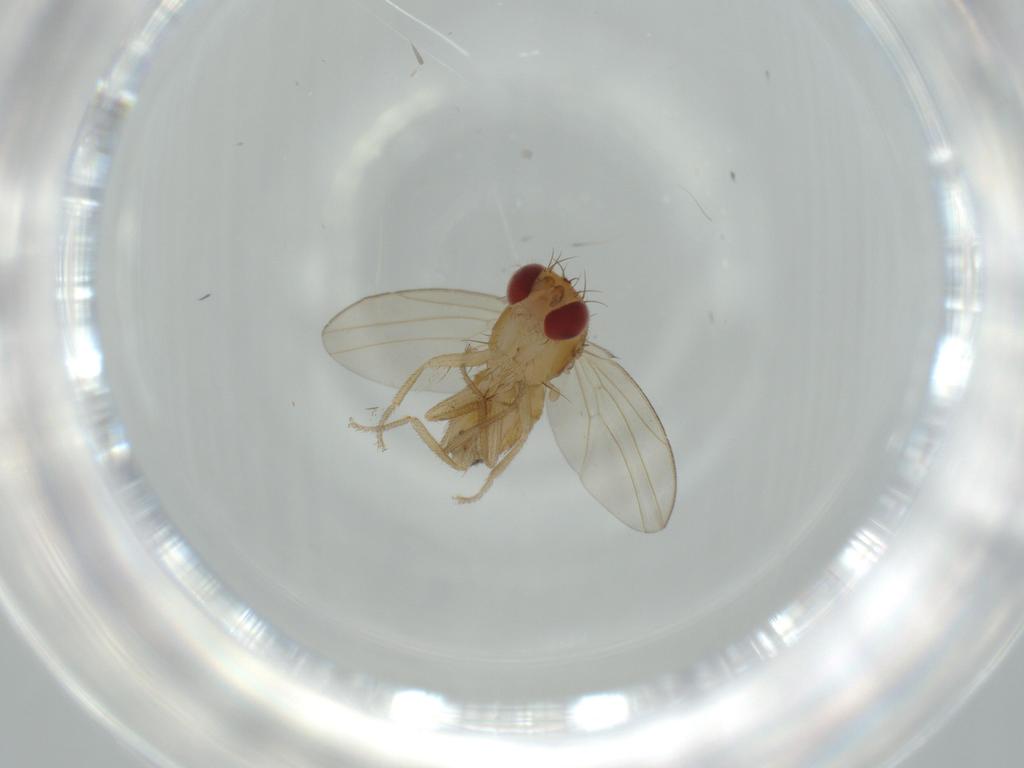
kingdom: Animalia
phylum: Arthropoda
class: Insecta
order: Diptera
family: Drosophilidae
